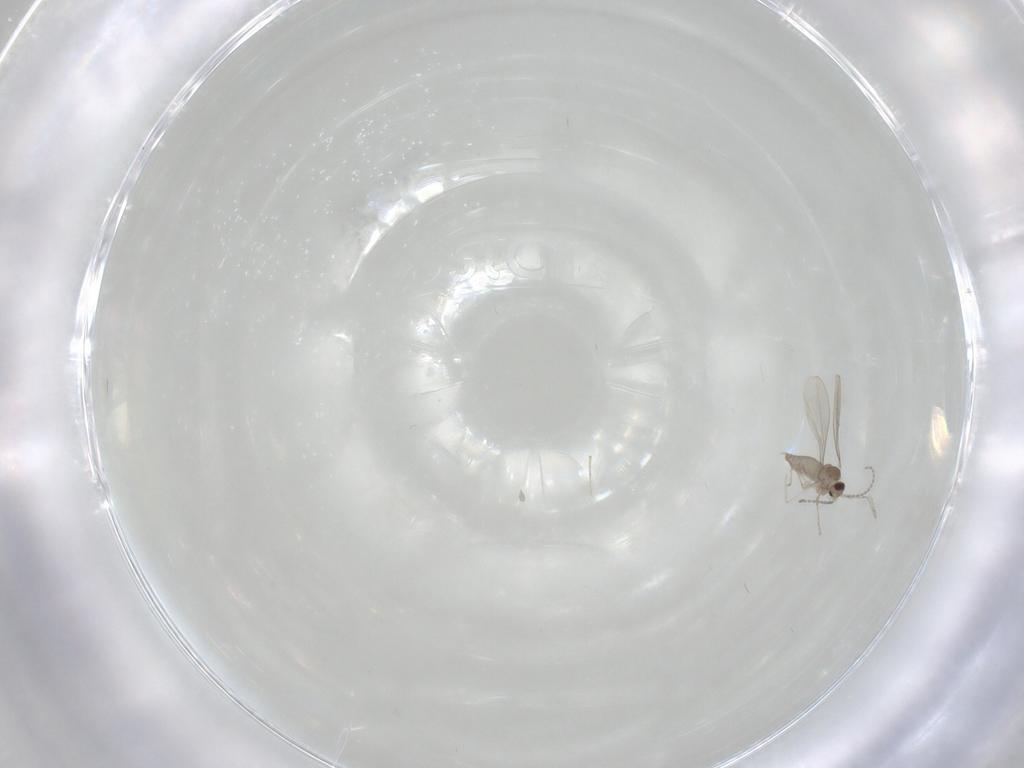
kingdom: Animalia
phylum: Arthropoda
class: Insecta
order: Diptera
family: Cecidomyiidae
